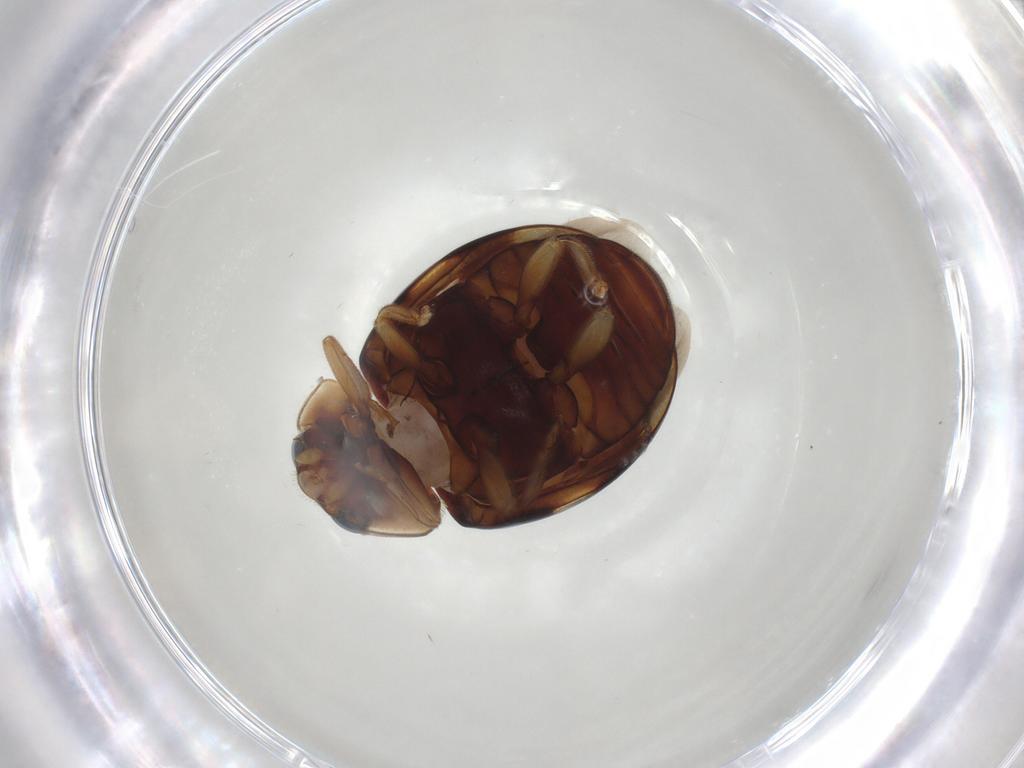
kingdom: Animalia
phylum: Arthropoda
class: Insecta
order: Coleoptera
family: Coccinellidae
